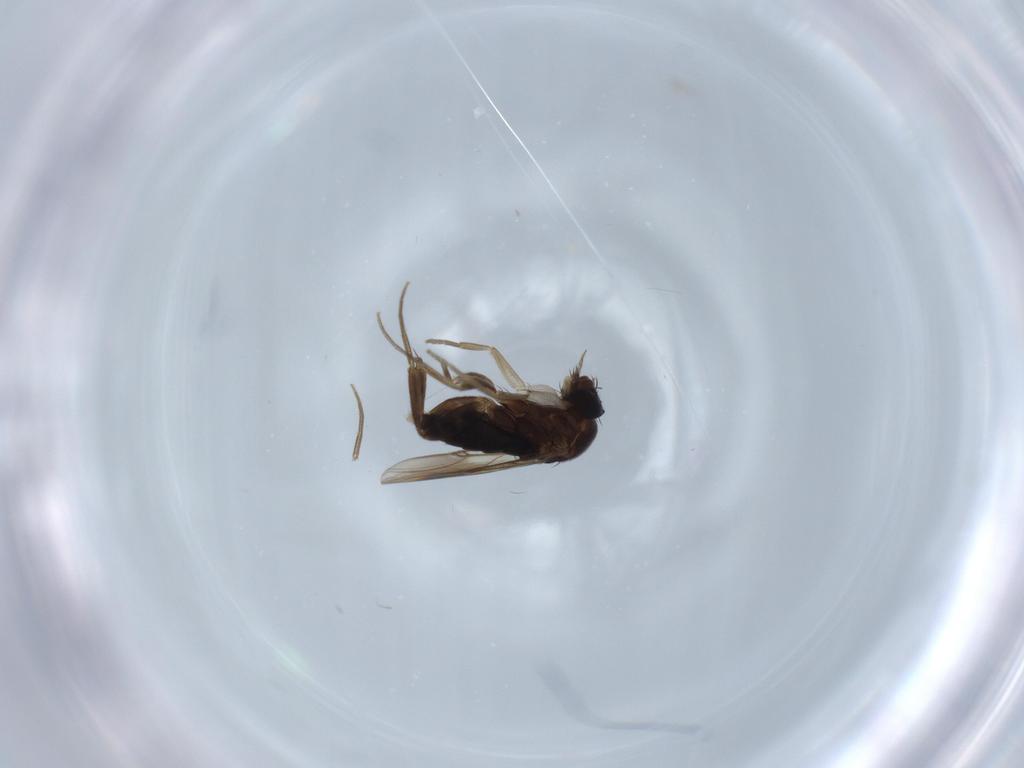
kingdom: Animalia
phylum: Arthropoda
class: Insecta
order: Diptera
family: Phoridae
